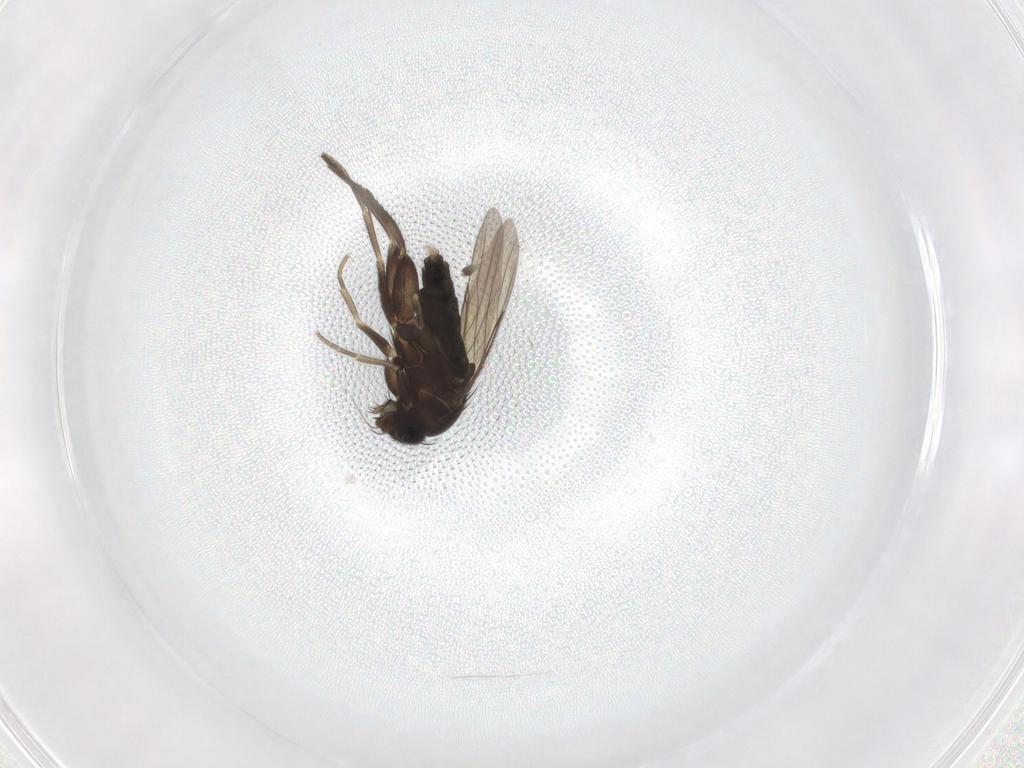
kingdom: Animalia
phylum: Arthropoda
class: Insecta
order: Diptera
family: Phoridae
